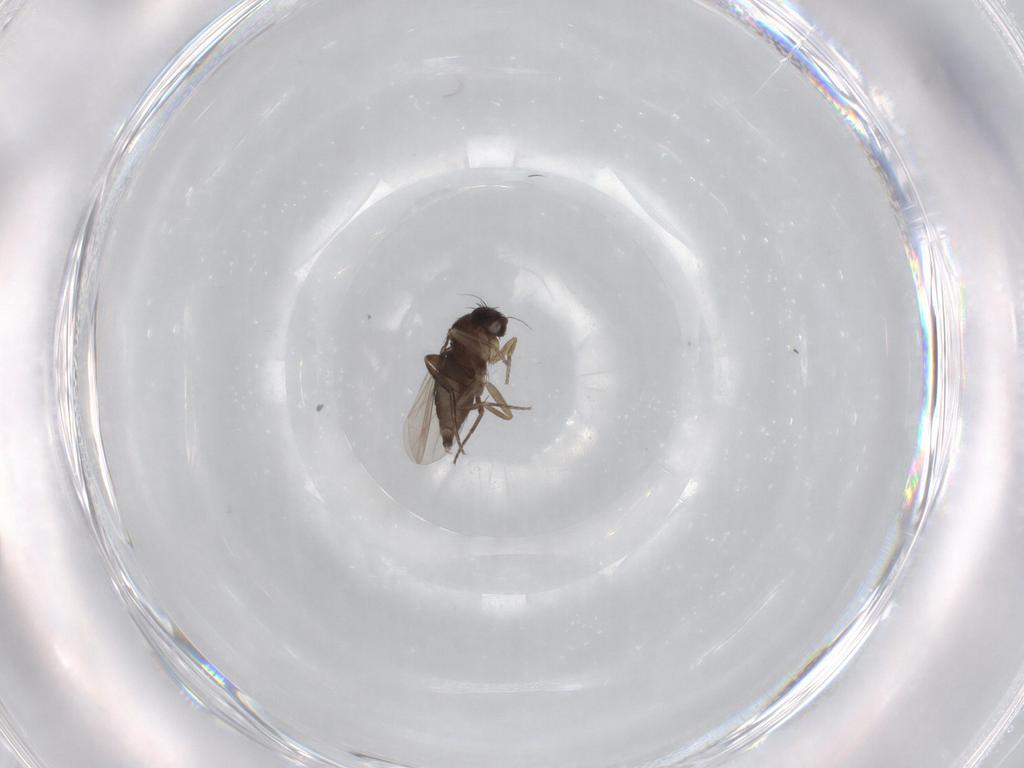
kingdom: Animalia
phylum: Arthropoda
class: Insecta
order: Diptera
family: Phoridae
